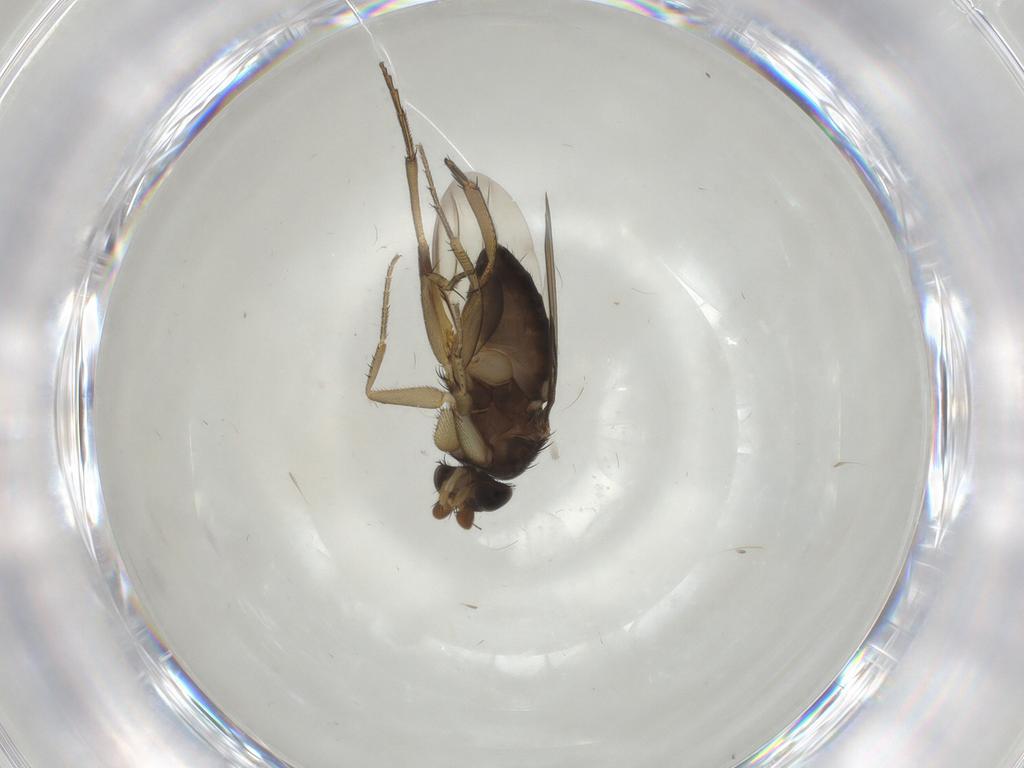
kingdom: Animalia
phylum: Arthropoda
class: Insecta
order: Diptera
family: Phoridae
